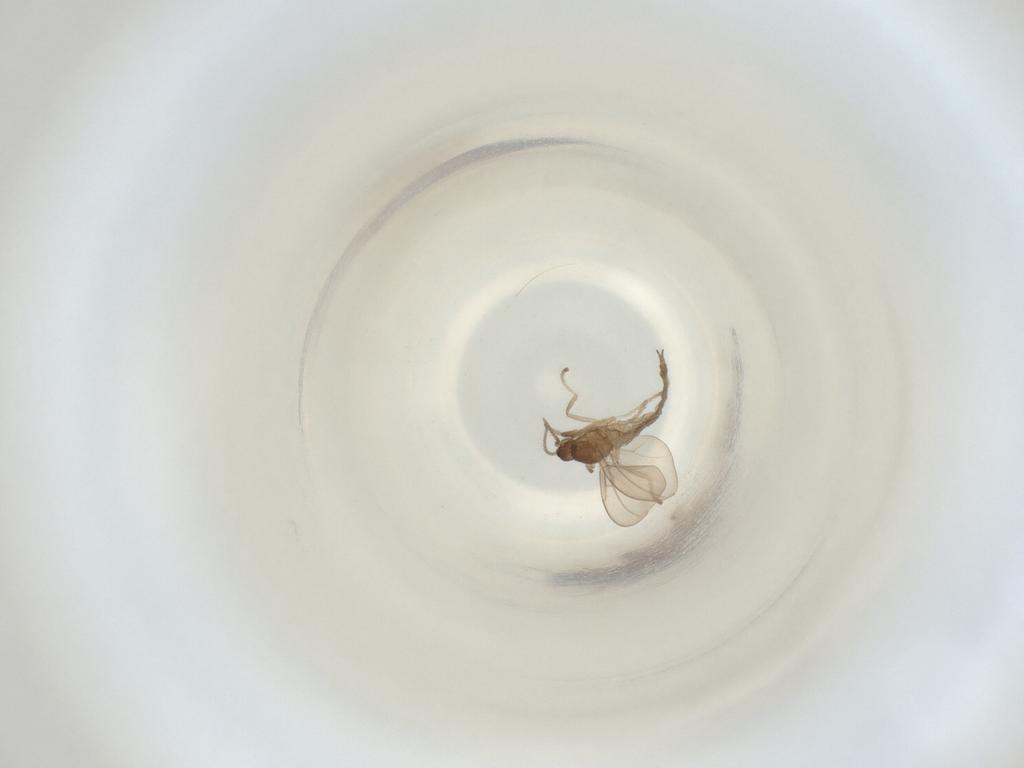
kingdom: Animalia
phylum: Arthropoda
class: Insecta
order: Diptera
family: Cecidomyiidae
